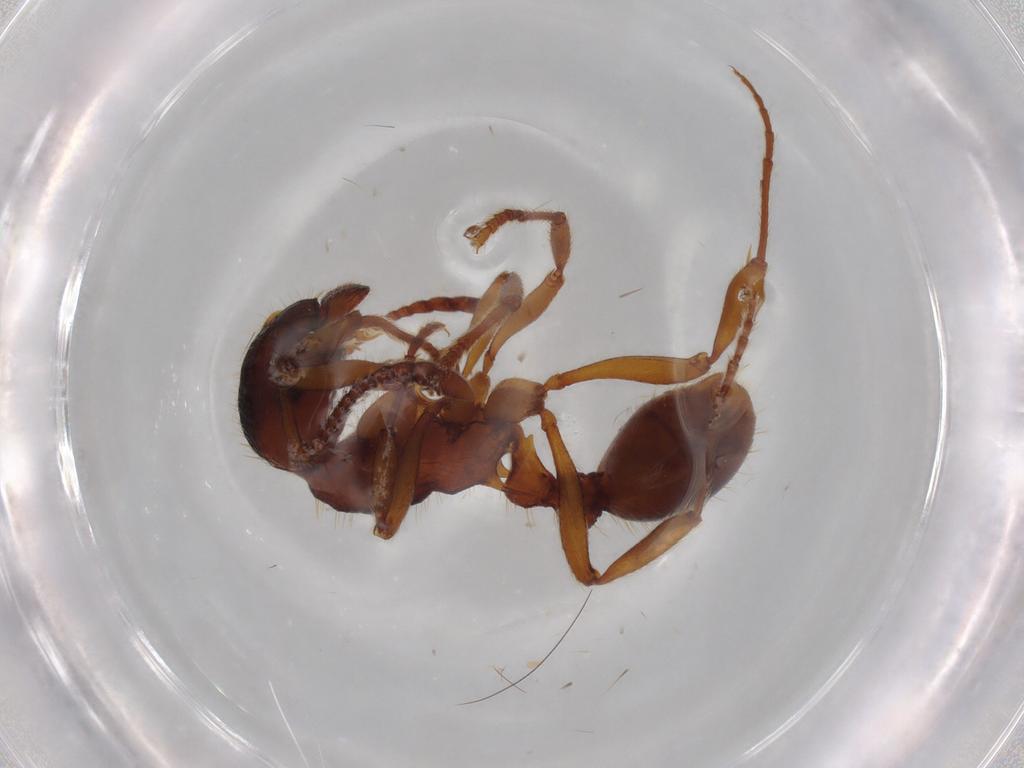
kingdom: Animalia
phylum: Arthropoda
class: Insecta
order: Hymenoptera
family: Formicidae
